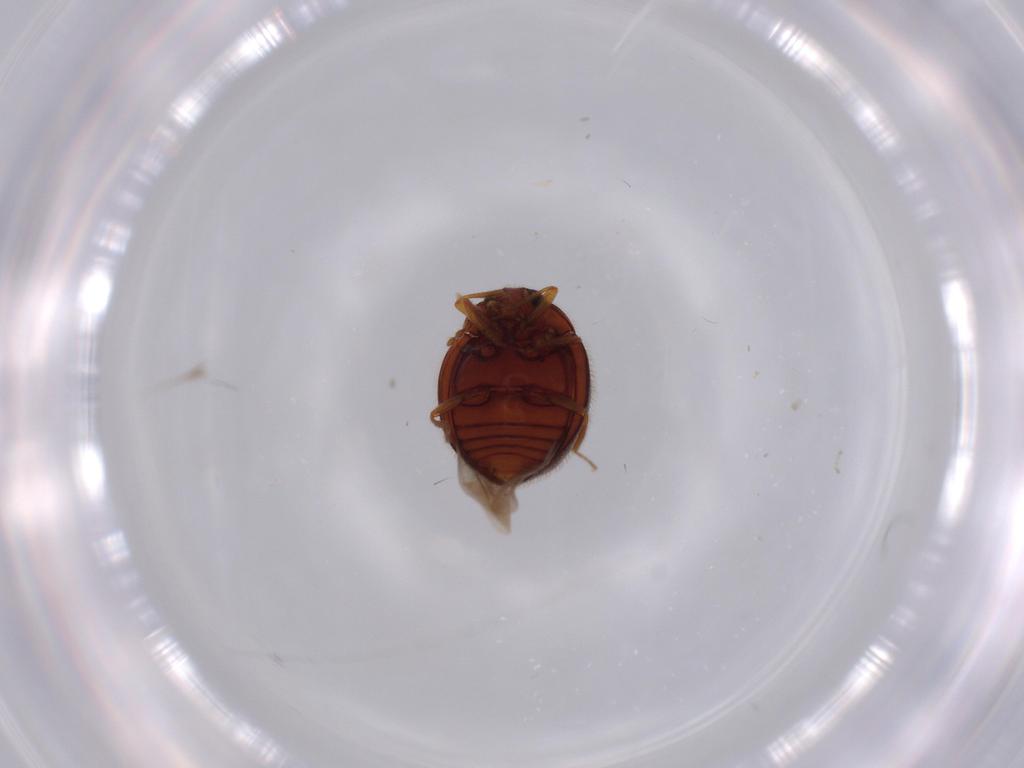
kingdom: Animalia
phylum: Arthropoda
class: Insecta
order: Coleoptera
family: Anamorphidae
